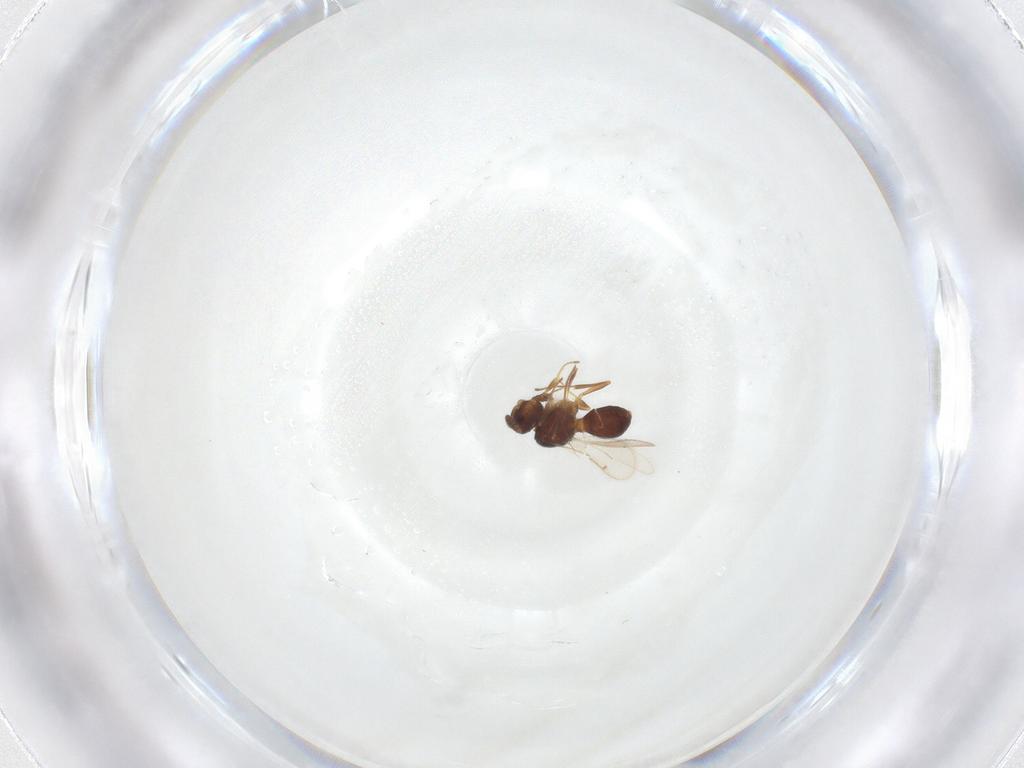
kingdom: Animalia
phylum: Arthropoda
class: Insecta
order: Hymenoptera
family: Scelionidae
